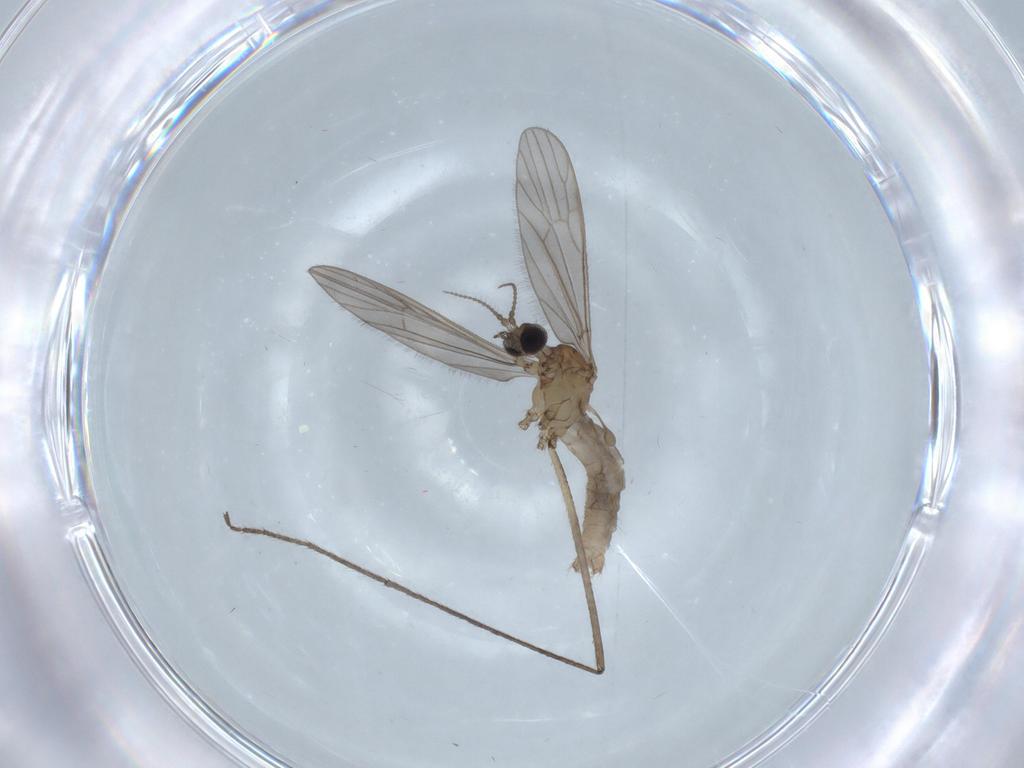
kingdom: Animalia
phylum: Arthropoda
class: Insecta
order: Diptera
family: Phoridae
